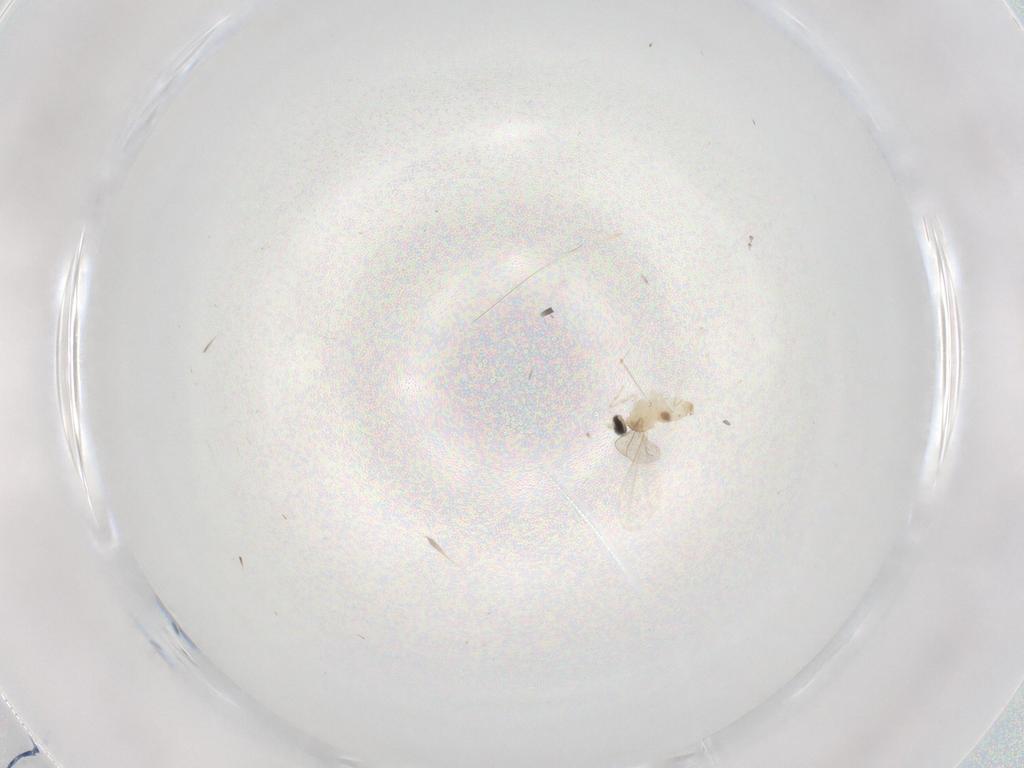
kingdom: Animalia
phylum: Arthropoda
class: Insecta
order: Diptera
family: Cecidomyiidae
